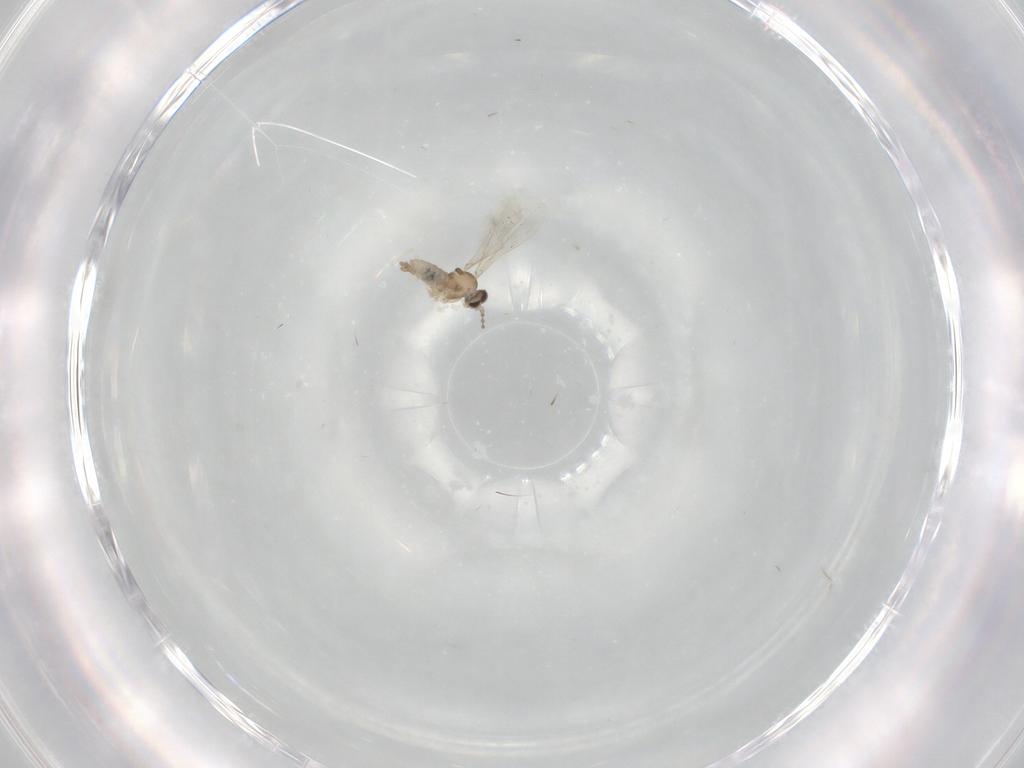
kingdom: Animalia
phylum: Arthropoda
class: Insecta
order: Diptera
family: Cecidomyiidae
